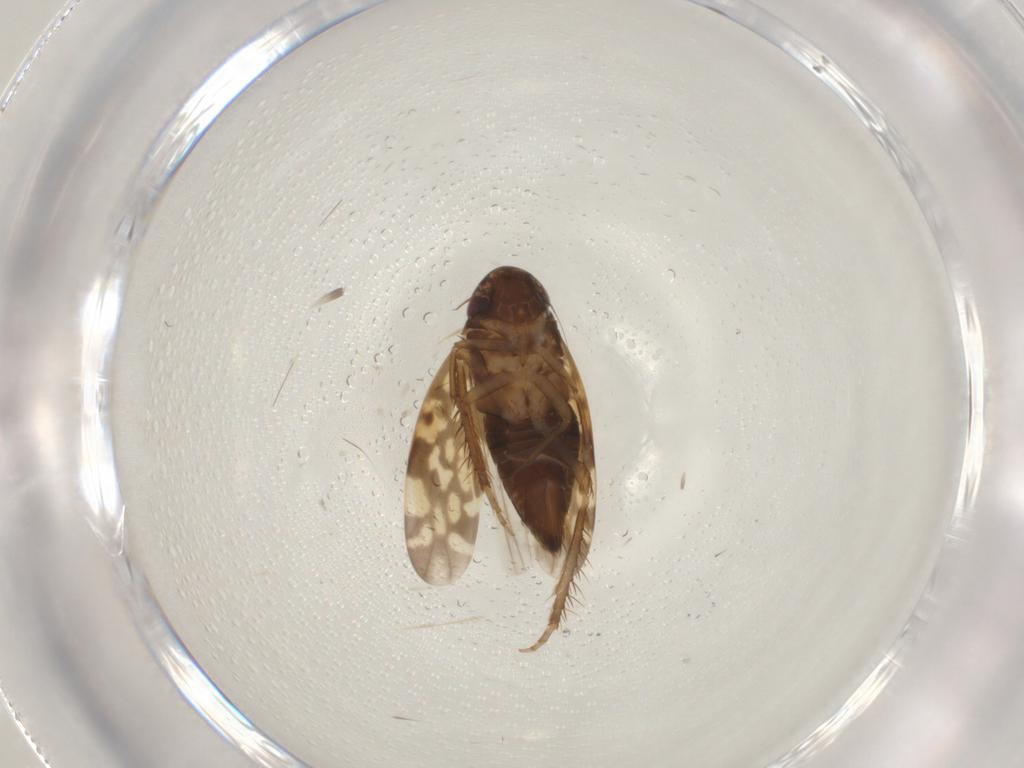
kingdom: Animalia
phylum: Arthropoda
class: Insecta
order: Hemiptera
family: Cicadellidae
